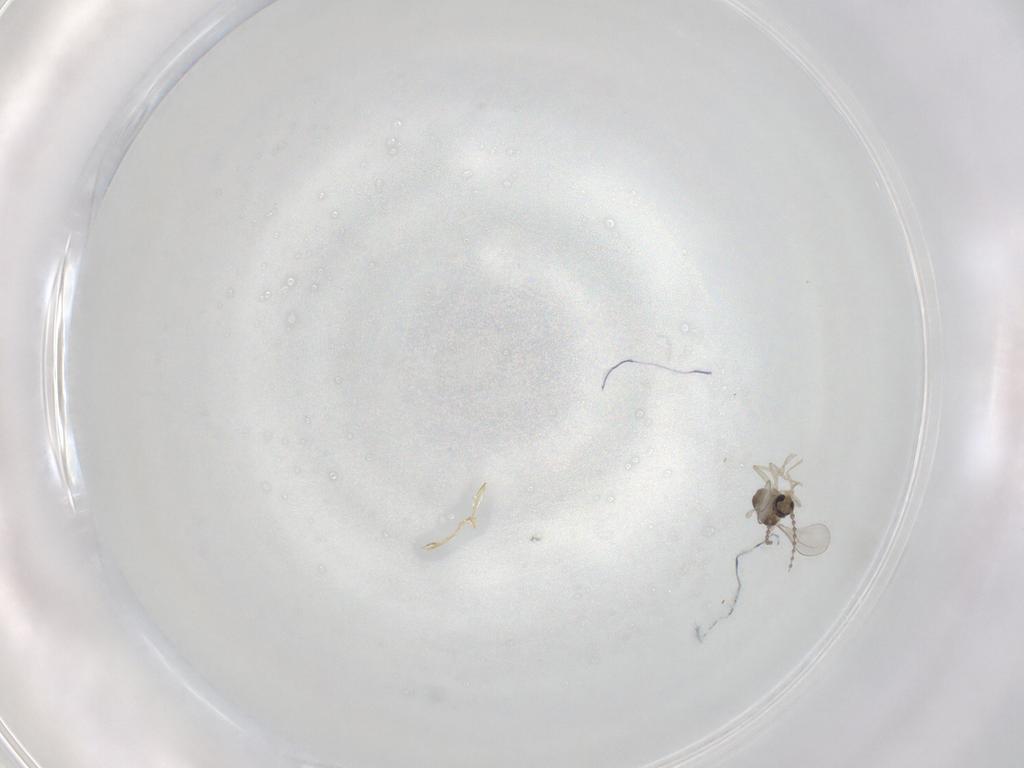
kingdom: Animalia
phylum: Arthropoda
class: Insecta
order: Diptera
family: Cecidomyiidae
